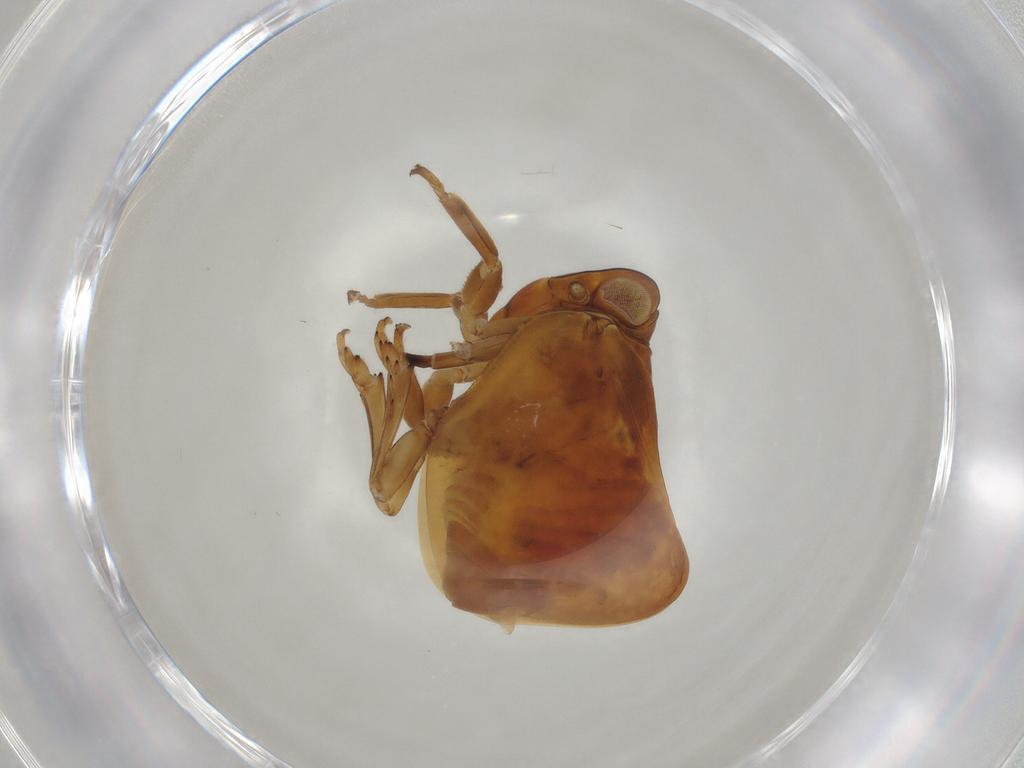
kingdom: Animalia
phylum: Arthropoda
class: Insecta
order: Hemiptera
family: Nogodinidae
